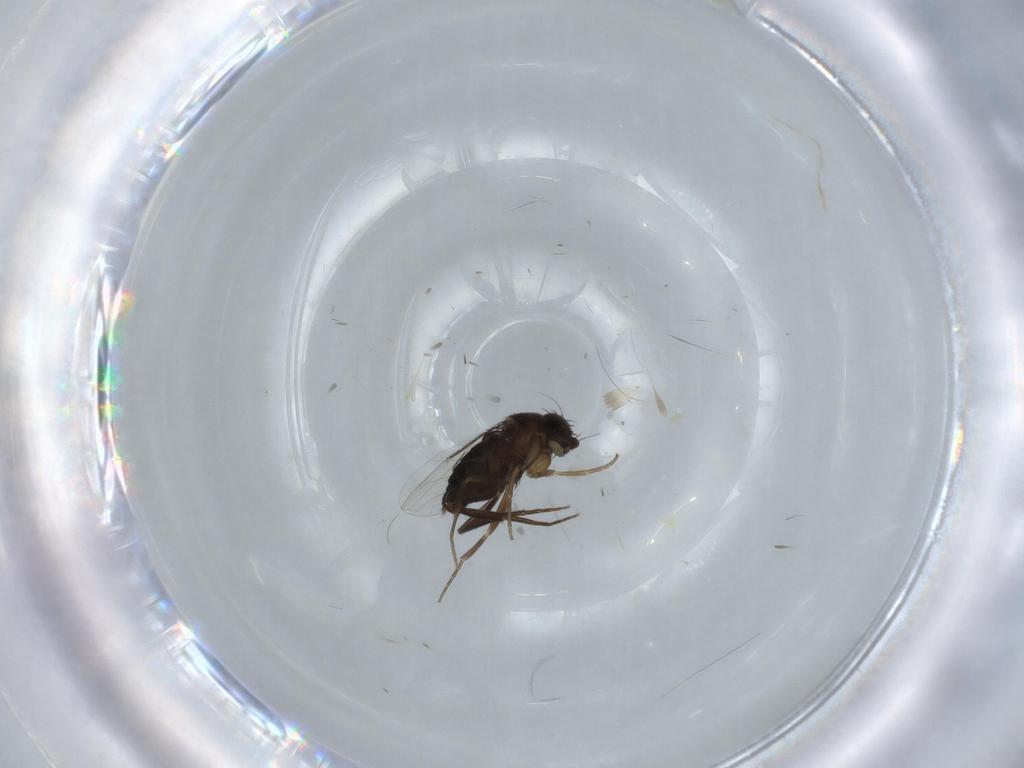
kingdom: Animalia
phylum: Arthropoda
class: Insecta
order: Diptera
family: Phoridae
